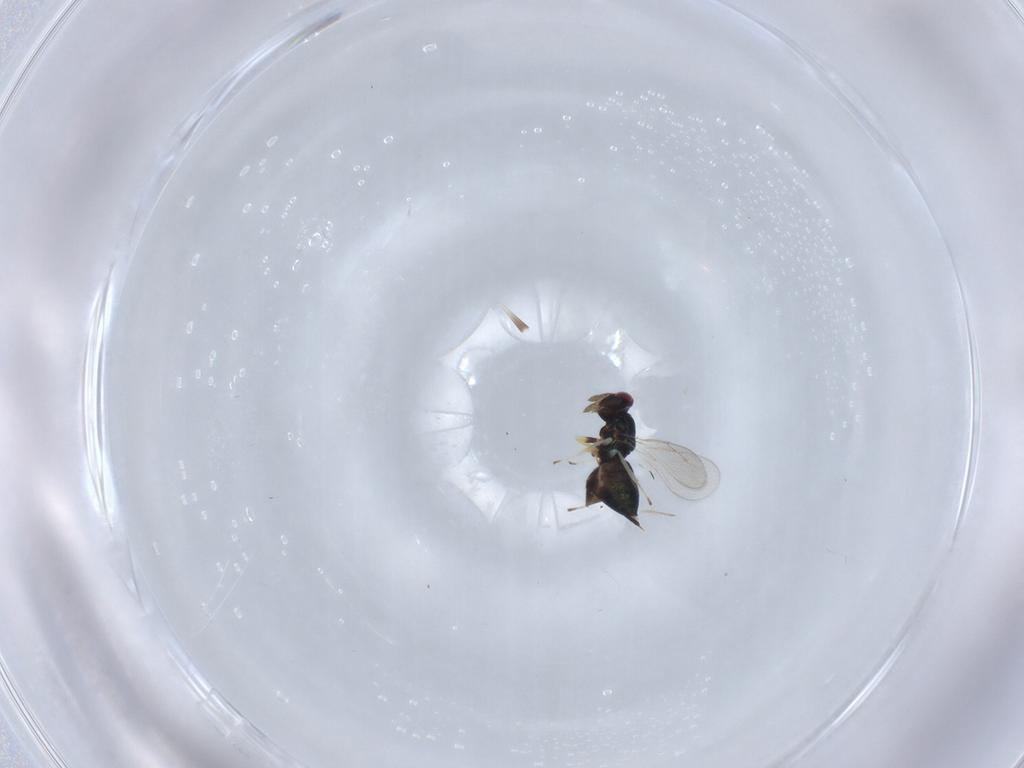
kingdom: Animalia
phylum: Arthropoda
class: Insecta
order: Hymenoptera
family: Eulophidae
